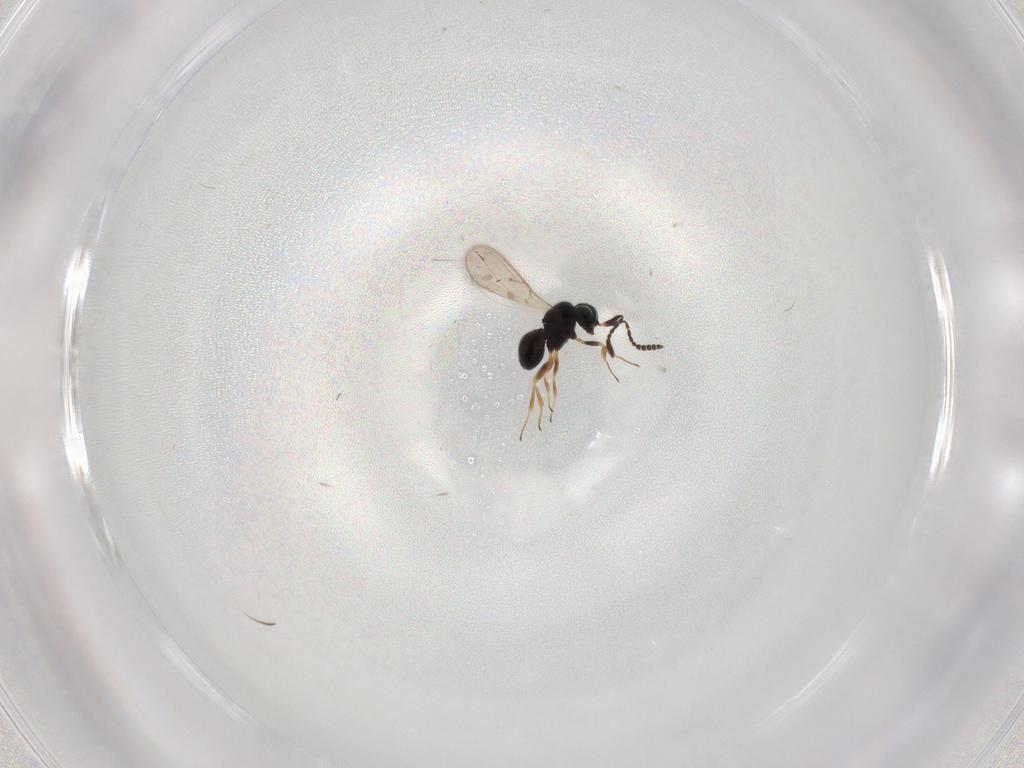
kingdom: Animalia
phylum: Arthropoda
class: Insecta
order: Hymenoptera
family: Scelionidae
